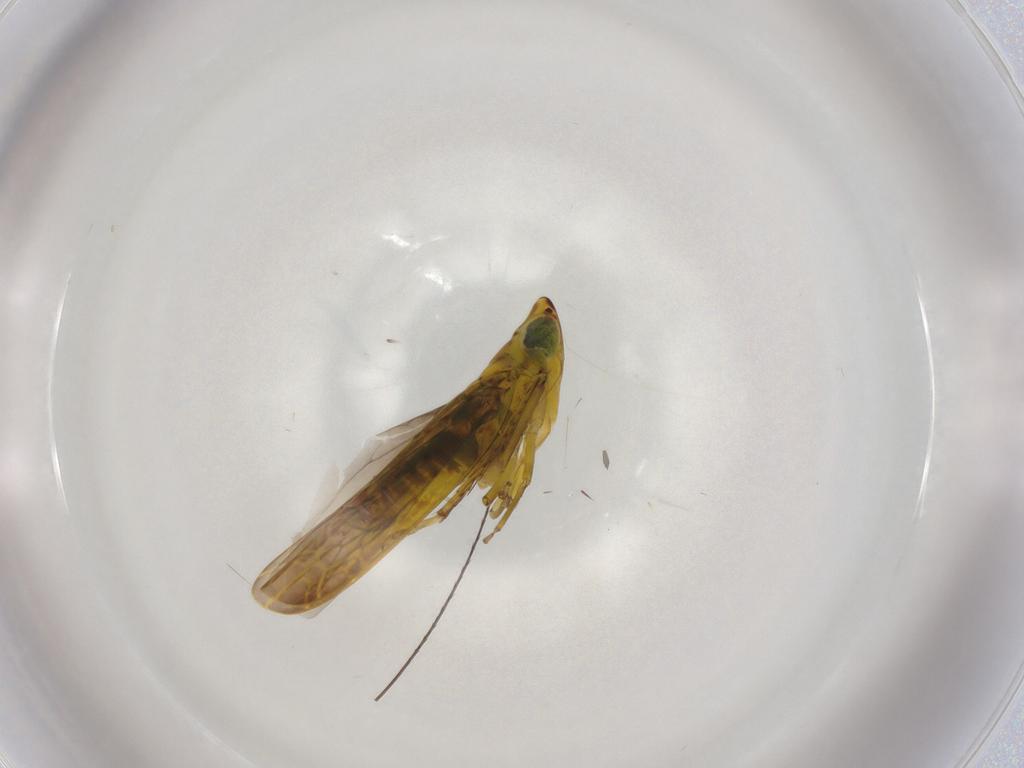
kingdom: Animalia
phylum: Arthropoda
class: Insecta
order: Hemiptera
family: Cicadellidae
